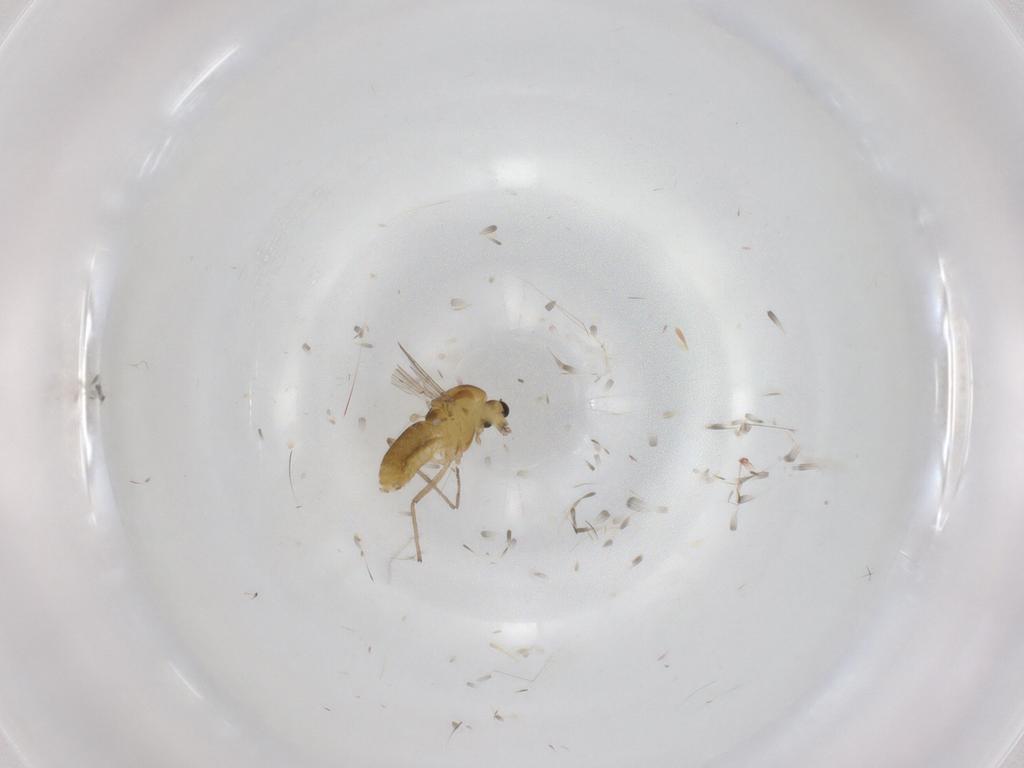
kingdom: Animalia
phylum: Arthropoda
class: Insecta
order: Diptera
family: Chironomidae
